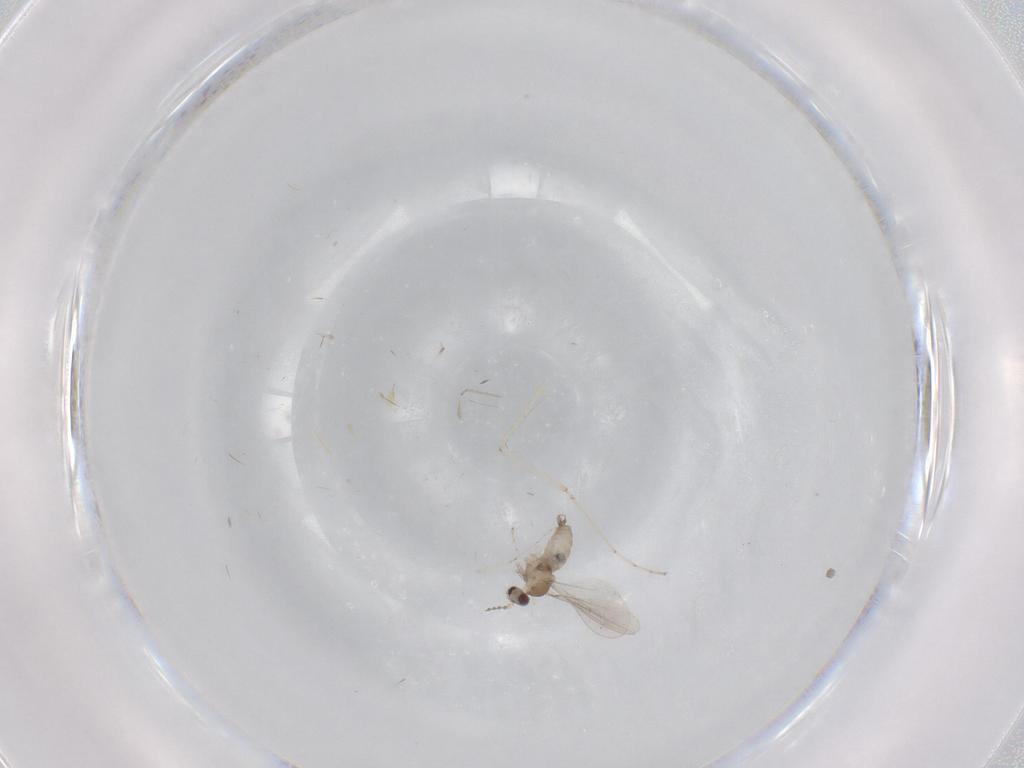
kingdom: Animalia
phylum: Arthropoda
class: Insecta
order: Diptera
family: Cecidomyiidae
